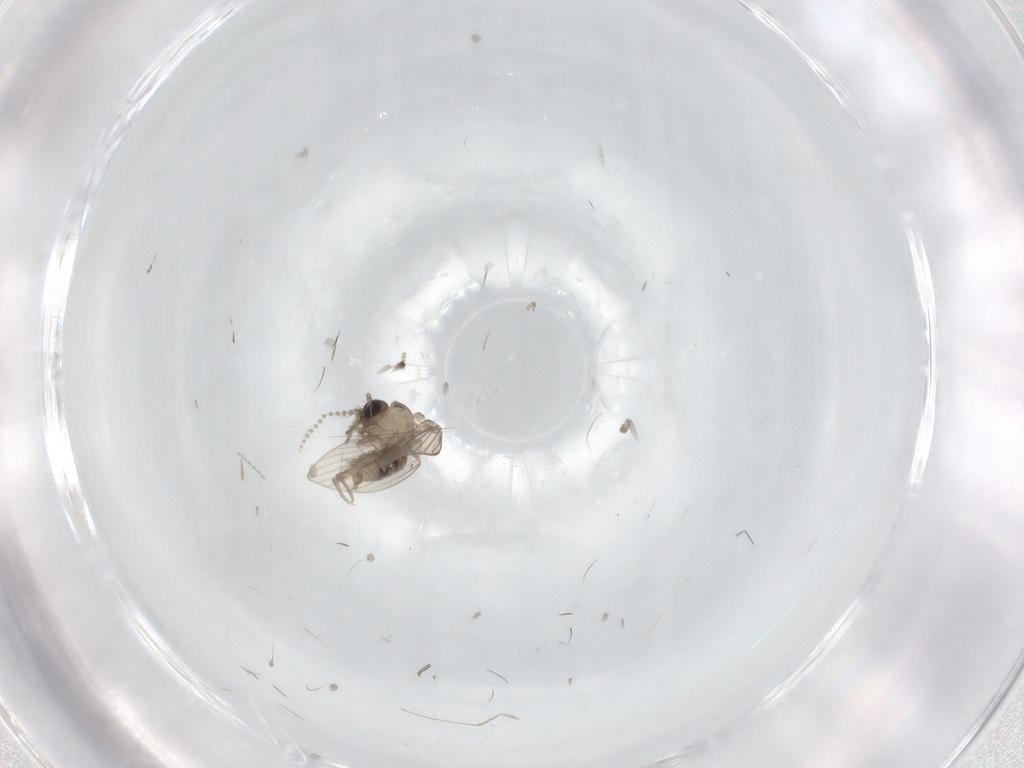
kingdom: Animalia
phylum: Arthropoda
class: Insecta
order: Diptera
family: Psychodidae
